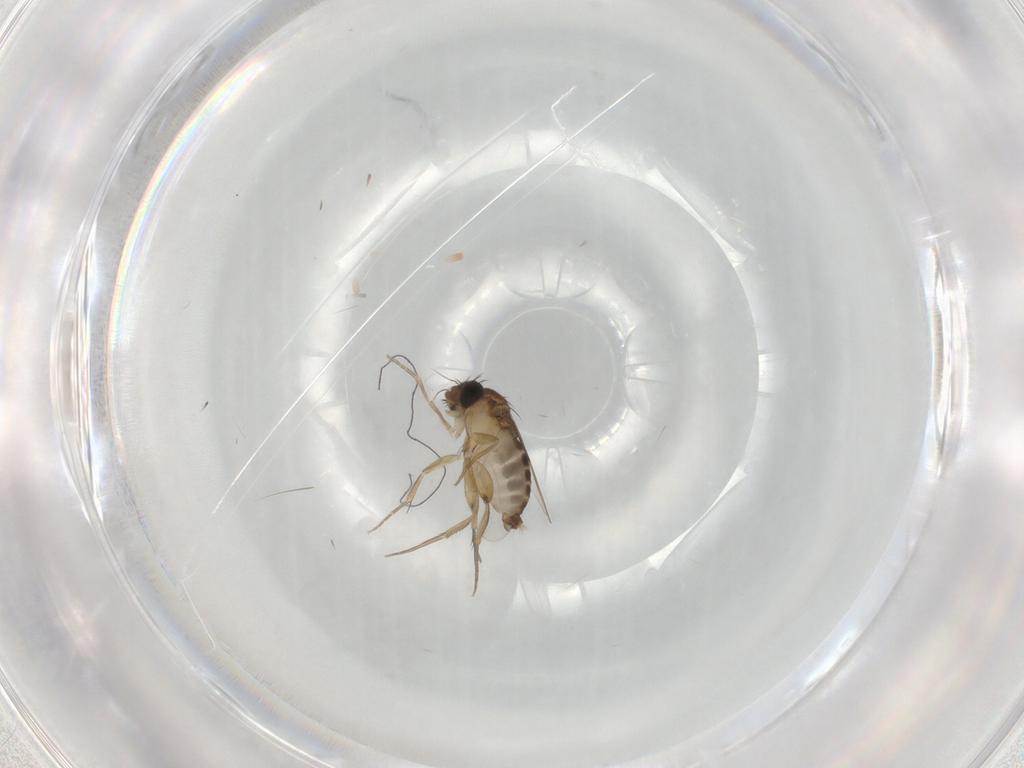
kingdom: Animalia
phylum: Arthropoda
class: Insecta
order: Diptera
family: Phoridae
